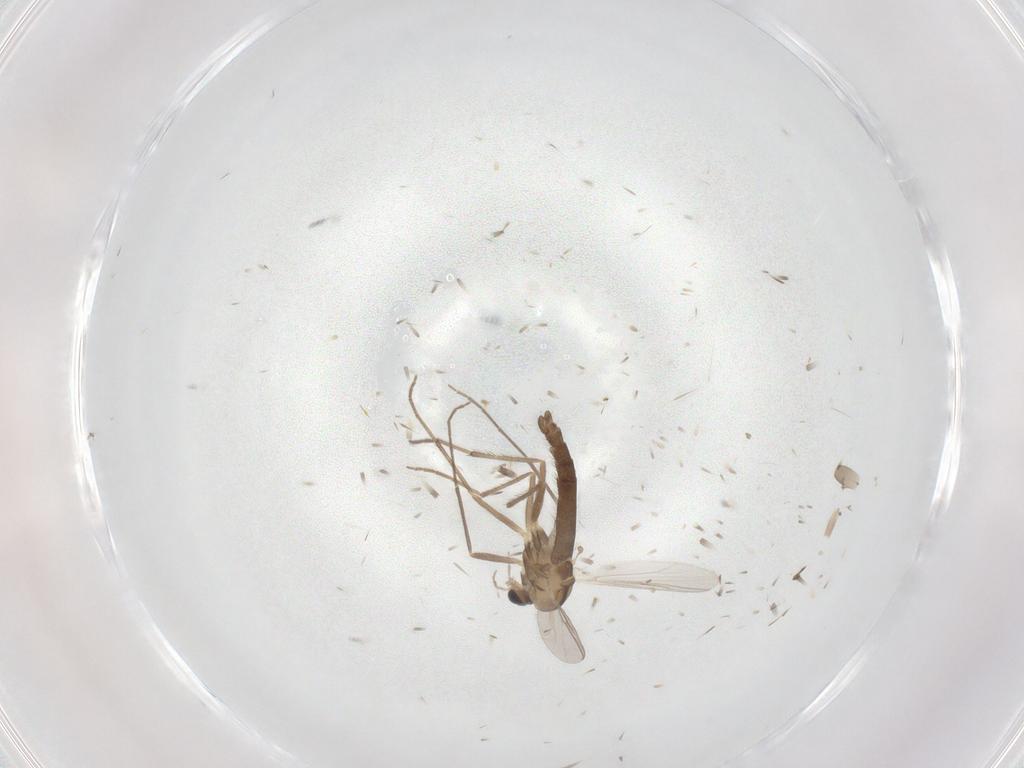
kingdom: Animalia
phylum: Arthropoda
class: Insecta
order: Diptera
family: Chironomidae
